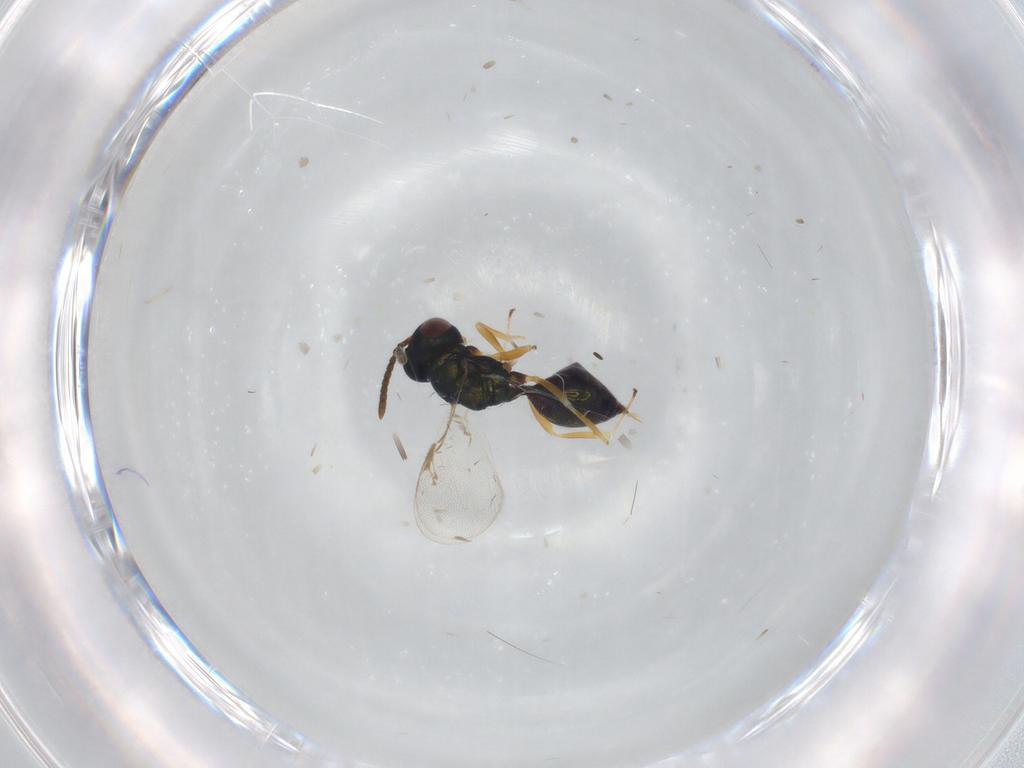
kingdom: Animalia
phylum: Arthropoda
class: Insecta
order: Hymenoptera
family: Pteromalidae
